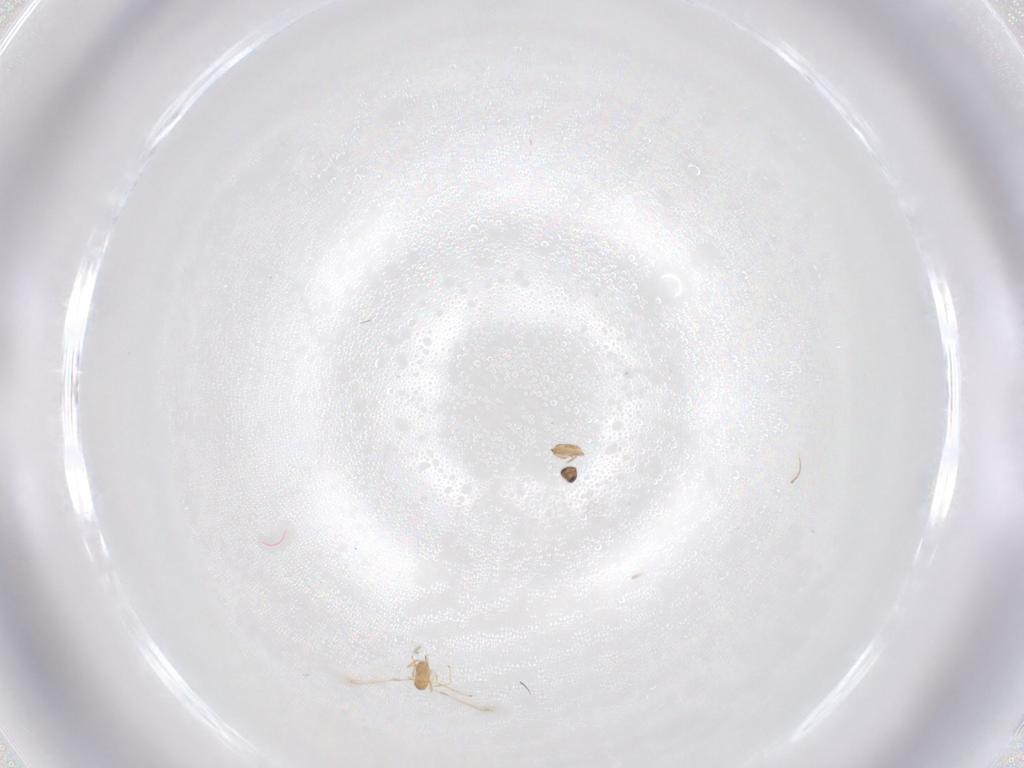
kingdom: Animalia
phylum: Arthropoda
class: Insecta
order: Hymenoptera
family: Mymaridae
